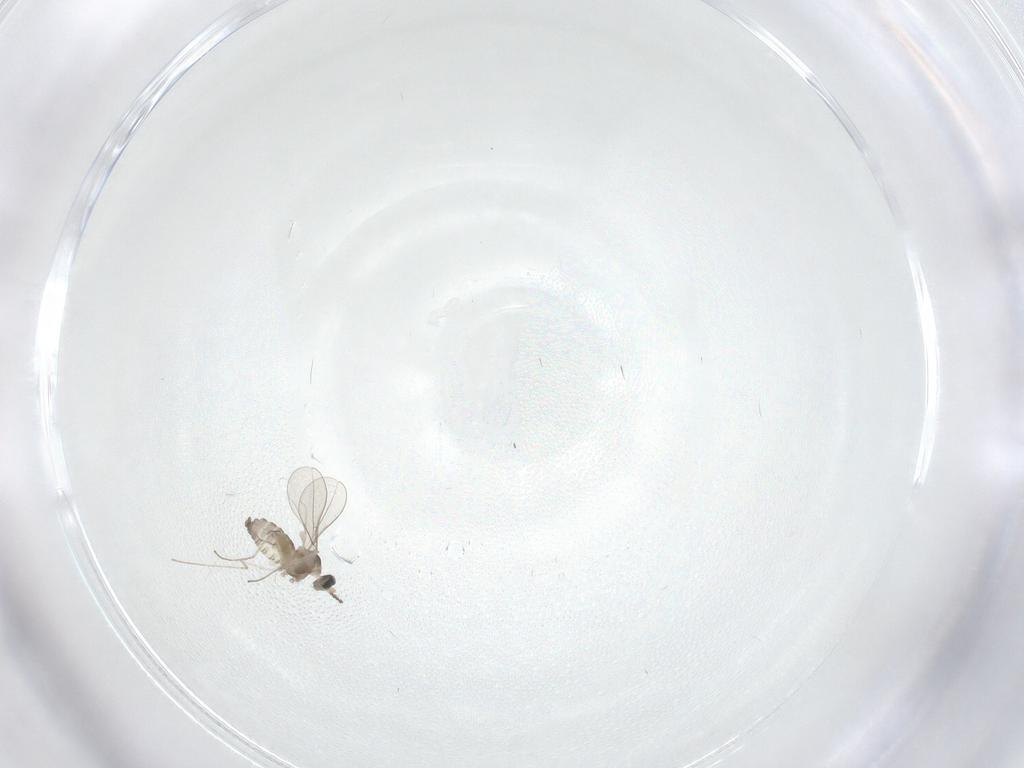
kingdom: Animalia
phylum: Arthropoda
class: Insecta
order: Diptera
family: Cecidomyiidae
